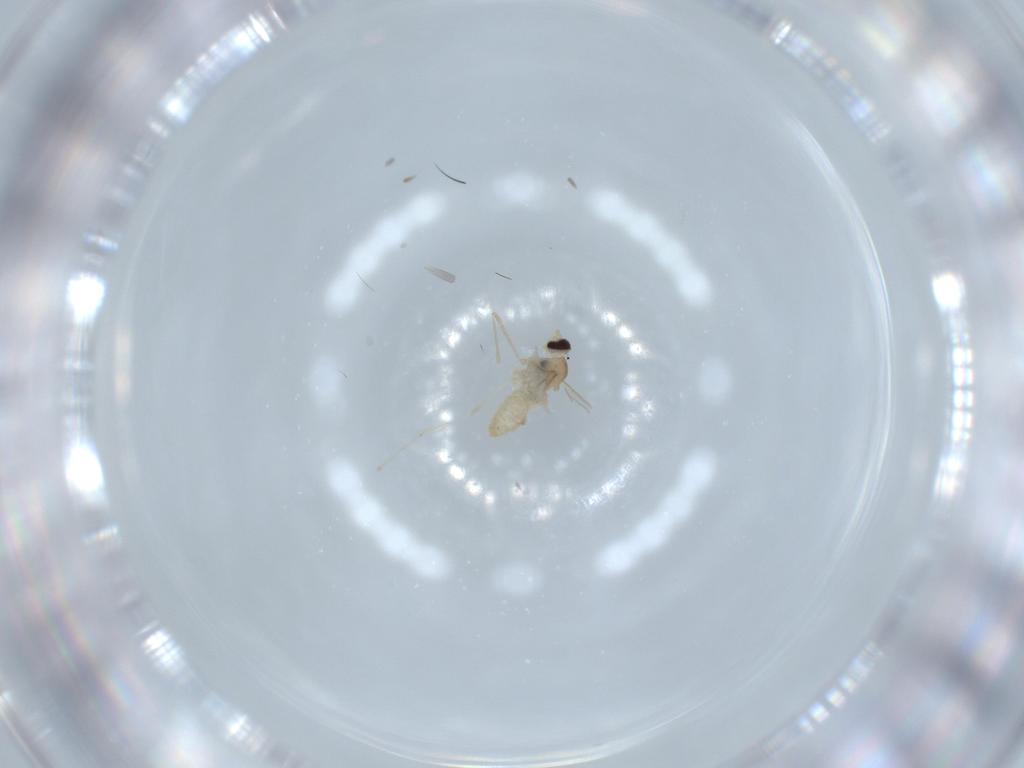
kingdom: Animalia
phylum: Arthropoda
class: Insecta
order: Diptera
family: Cecidomyiidae
